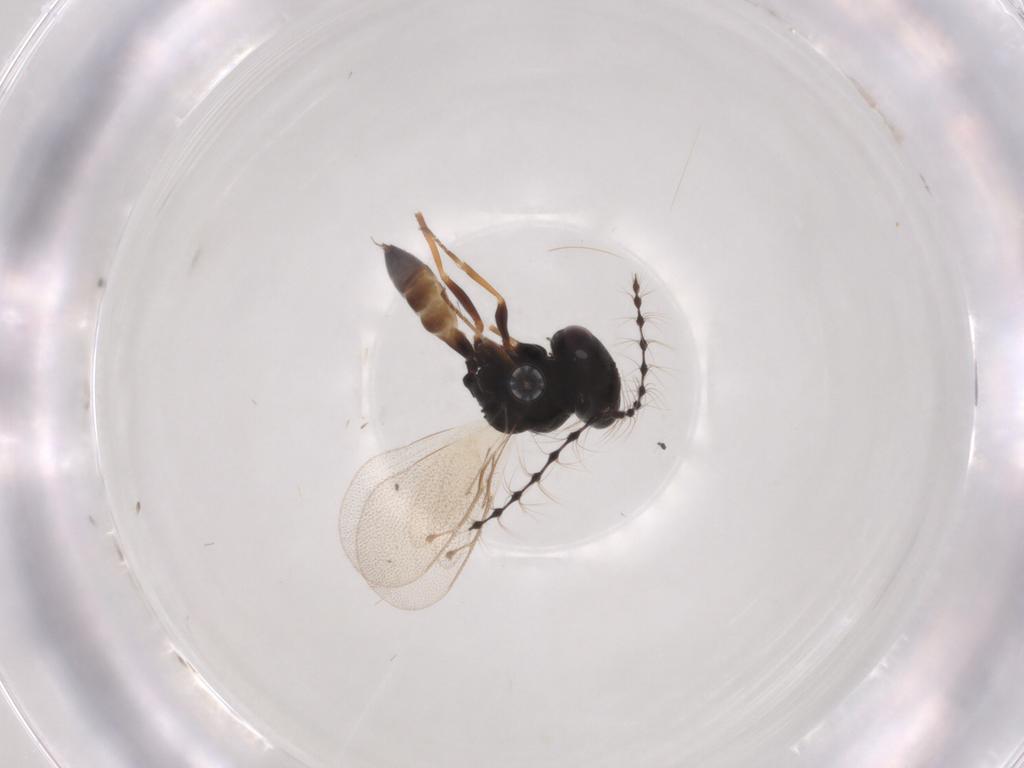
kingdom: Animalia
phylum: Arthropoda
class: Insecta
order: Hymenoptera
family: Pteromalidae
